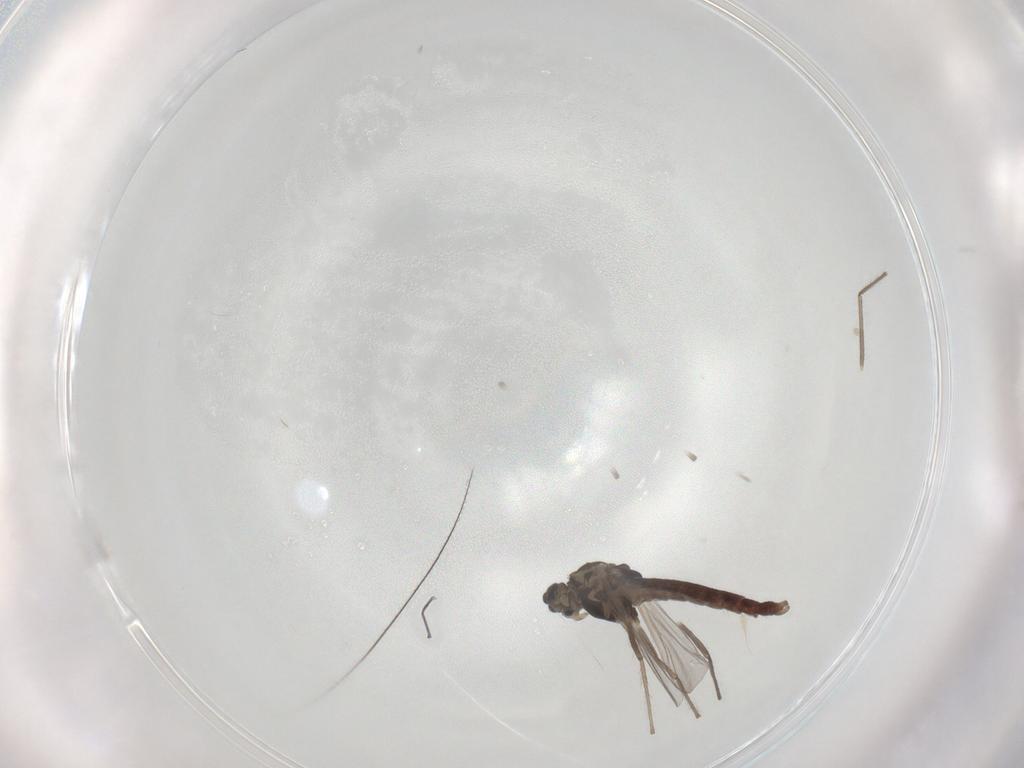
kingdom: Animalia
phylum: Arthropoda
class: Insecta
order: Diptera
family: Chironomidae
